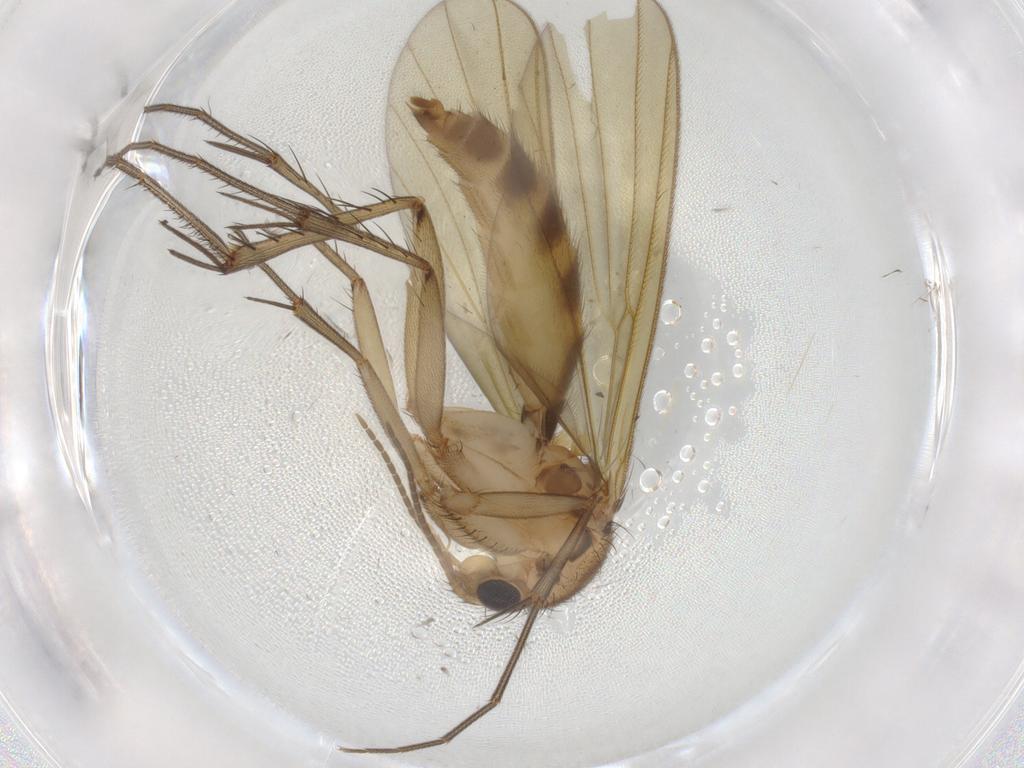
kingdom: Animalia
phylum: Arthropoda
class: Insecta
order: Diptera
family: Mycetophilidae
